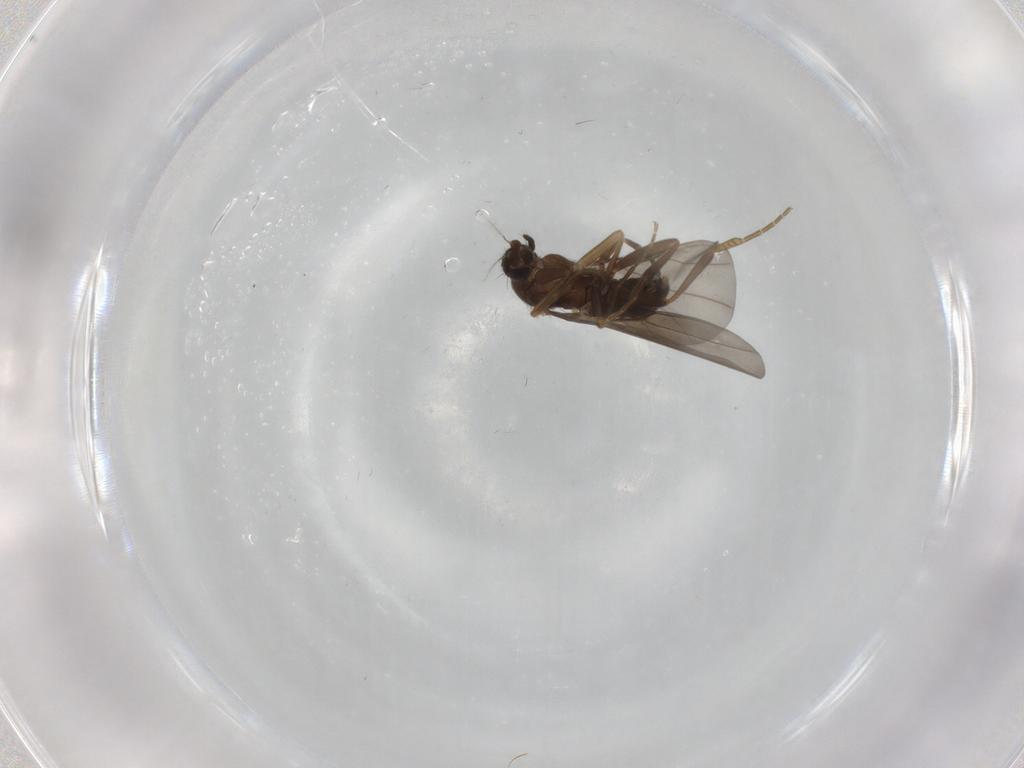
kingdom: Animalia
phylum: Arthropoda
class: Insecta
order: Diptera
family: Phoridae
